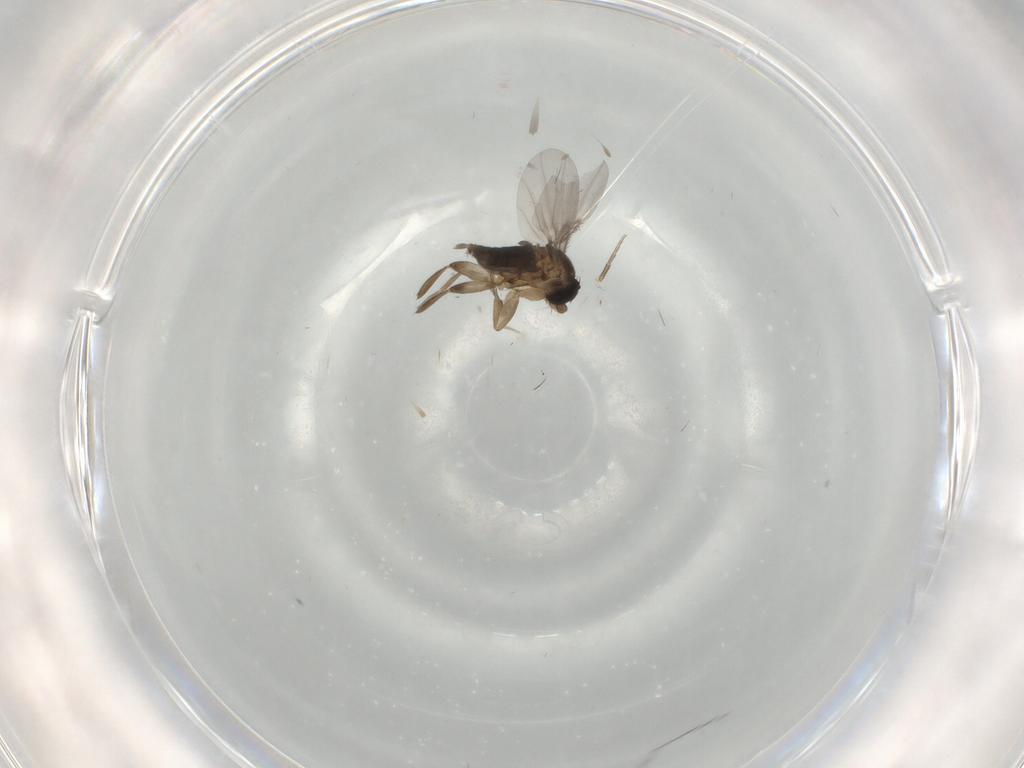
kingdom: Animalia
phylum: Arthropoda
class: Insecta
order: Diptera
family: Phoridae
